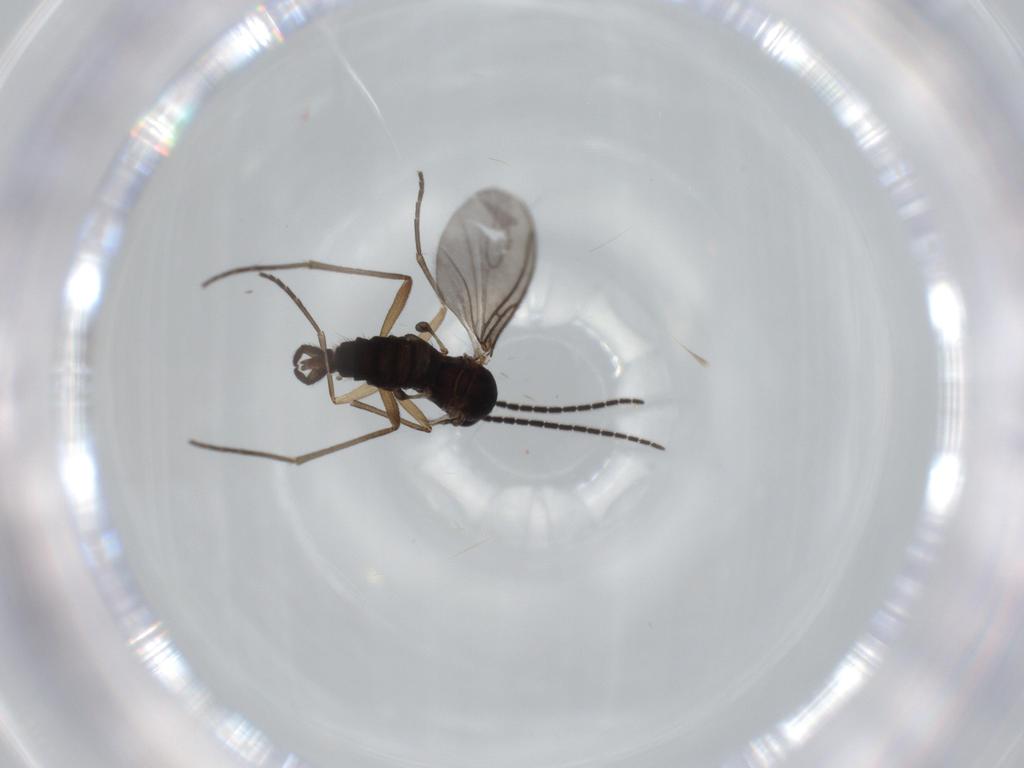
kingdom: Animalia
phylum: Arthropoda
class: Insecta
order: Diptera
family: Sciaridae
